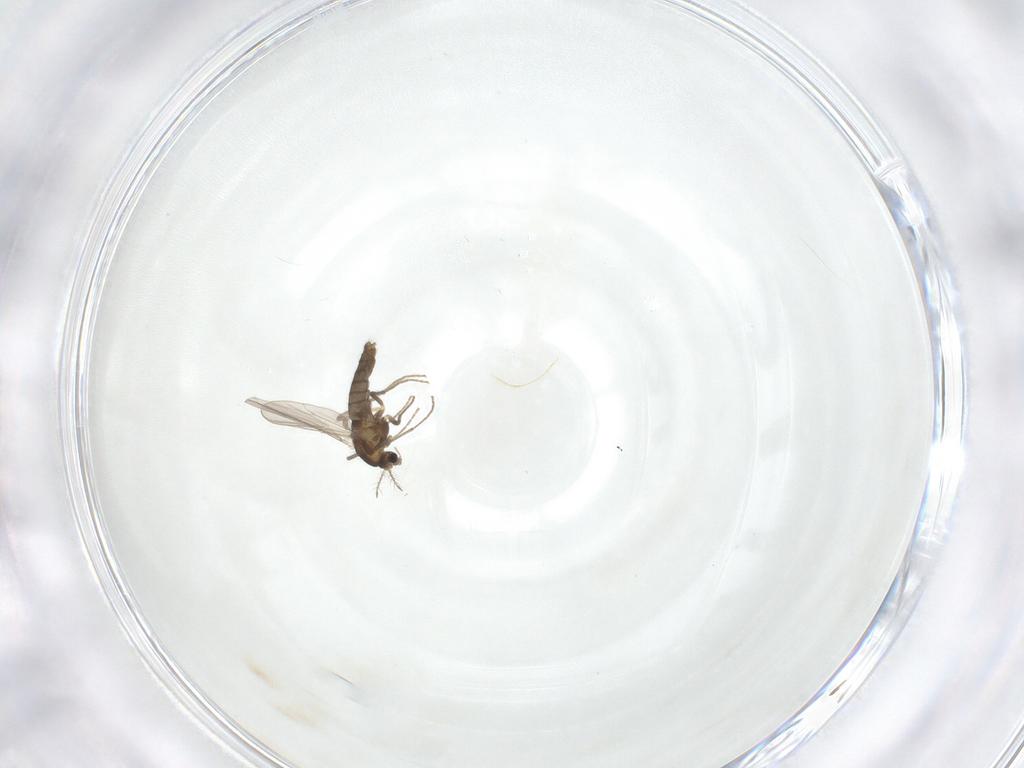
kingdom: Animalia
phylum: Arthropoda
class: Insecta
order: Diptera
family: Chironomidae
